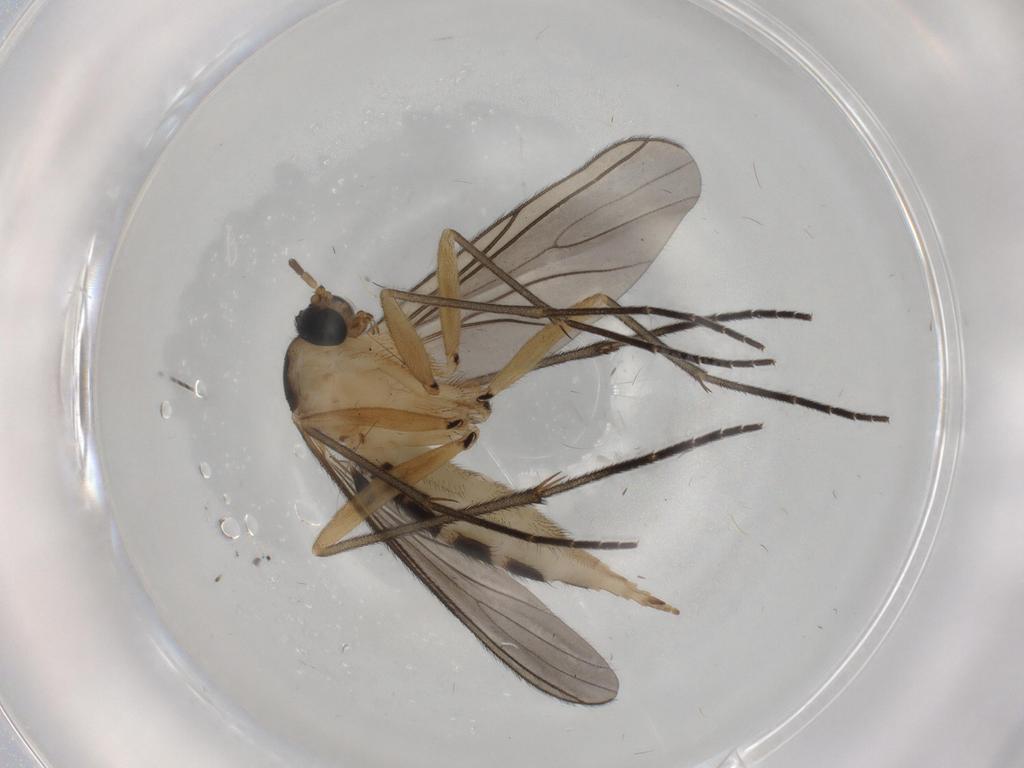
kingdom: Animalia
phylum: Arthropoda
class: Insecta
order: Diptera
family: Sciaridae
